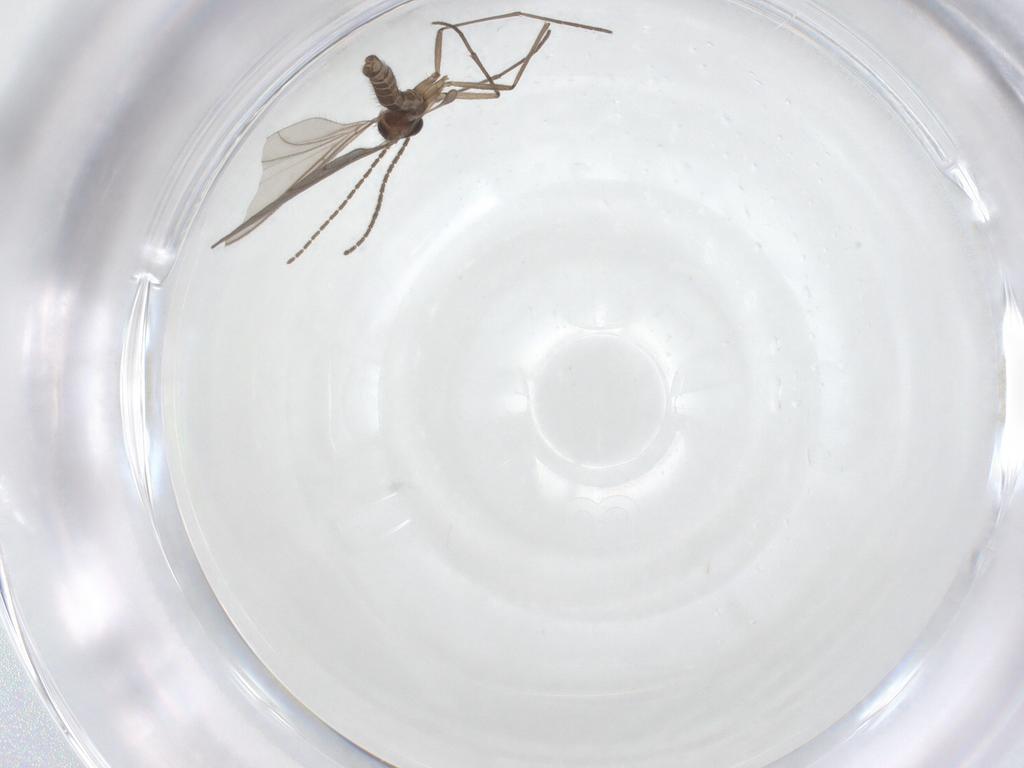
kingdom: Animalia
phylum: Arthropoda
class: Insecta
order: Diptera
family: Sciaridae
